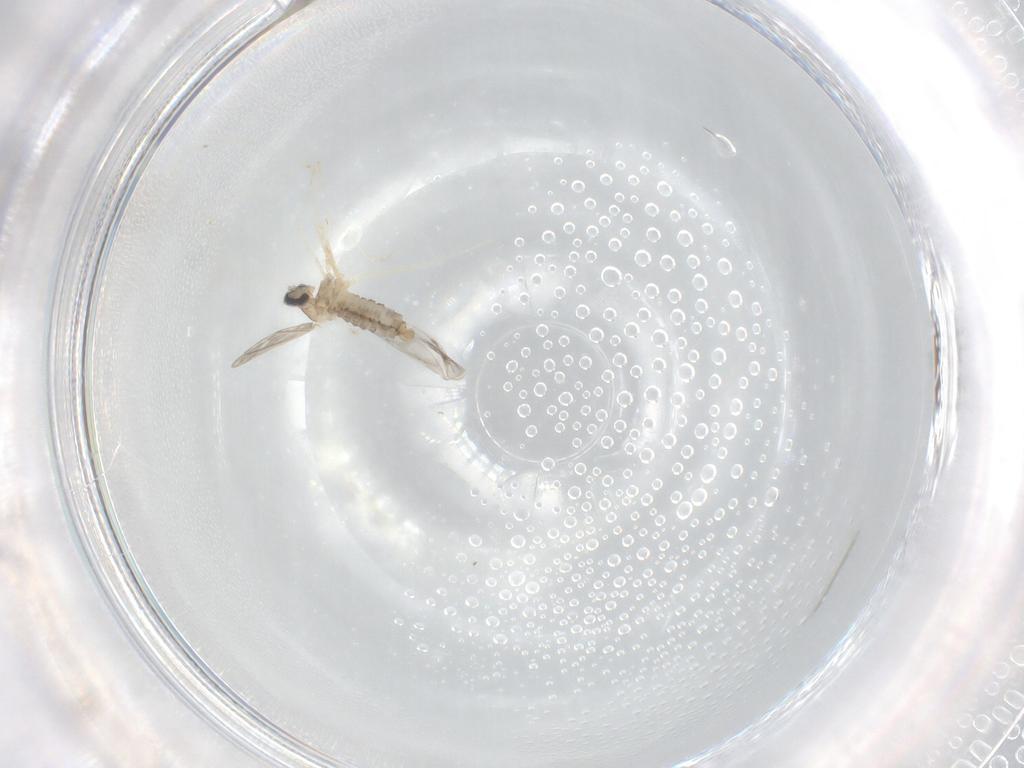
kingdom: Animalia
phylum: Arthropoda
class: Insecta
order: Diptera
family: Cecidomyiidae
